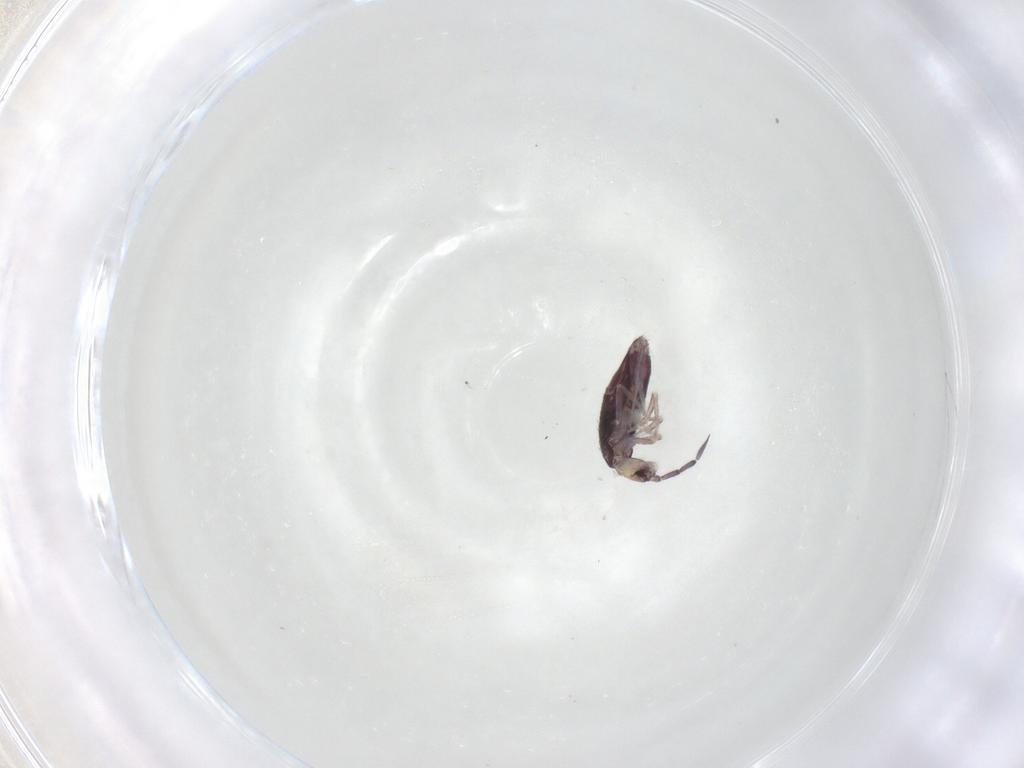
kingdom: Animalia
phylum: Arthropoda
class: Collembola
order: Entomobryomorpha
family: Entomobryidae
